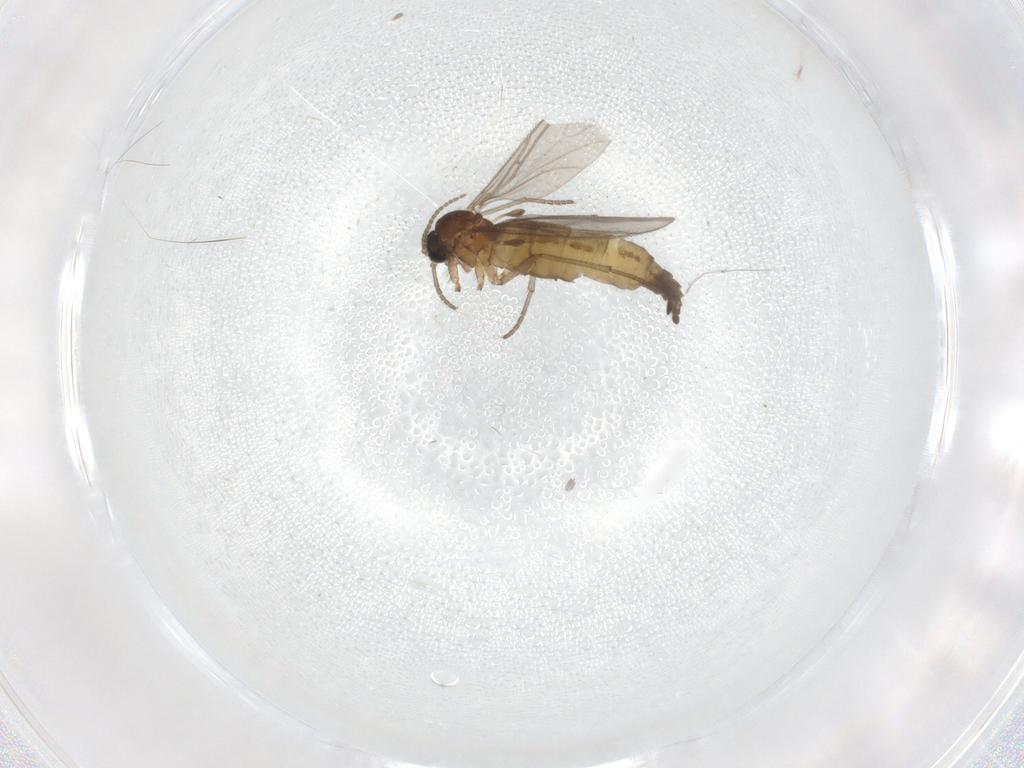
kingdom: Animalia
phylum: Arthropoda
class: Insecta
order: Diptera
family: Sciaridae
